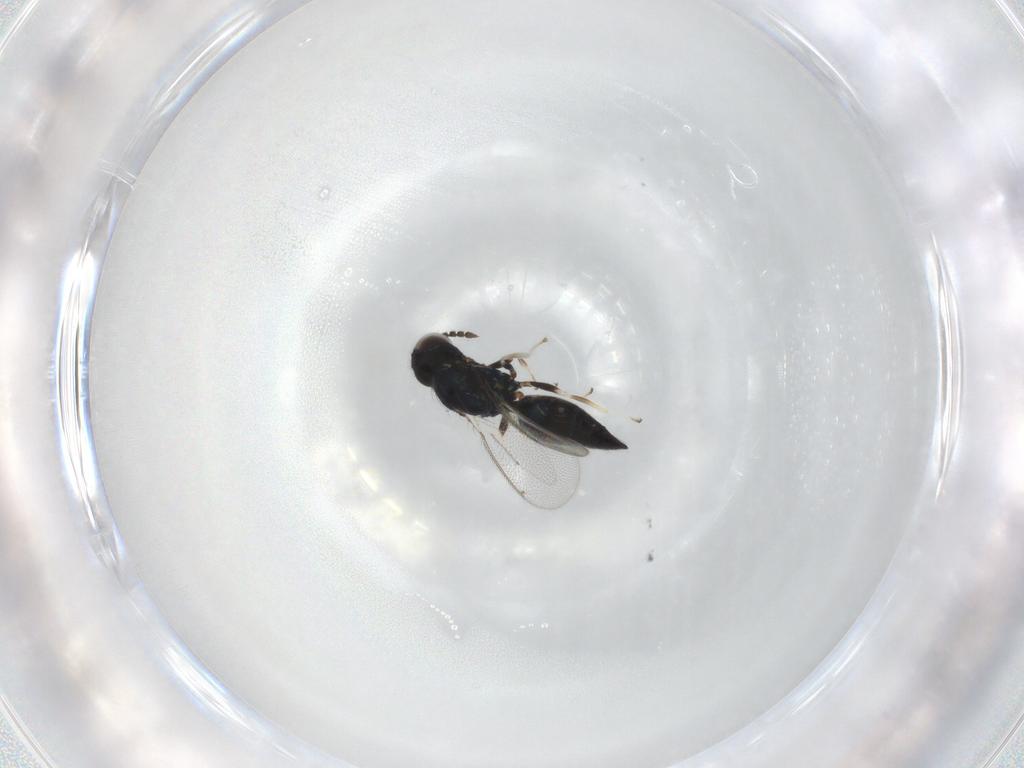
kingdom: Animalia
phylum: Arthropoda
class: Insecta
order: Hymenoptera
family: Eulophidae
